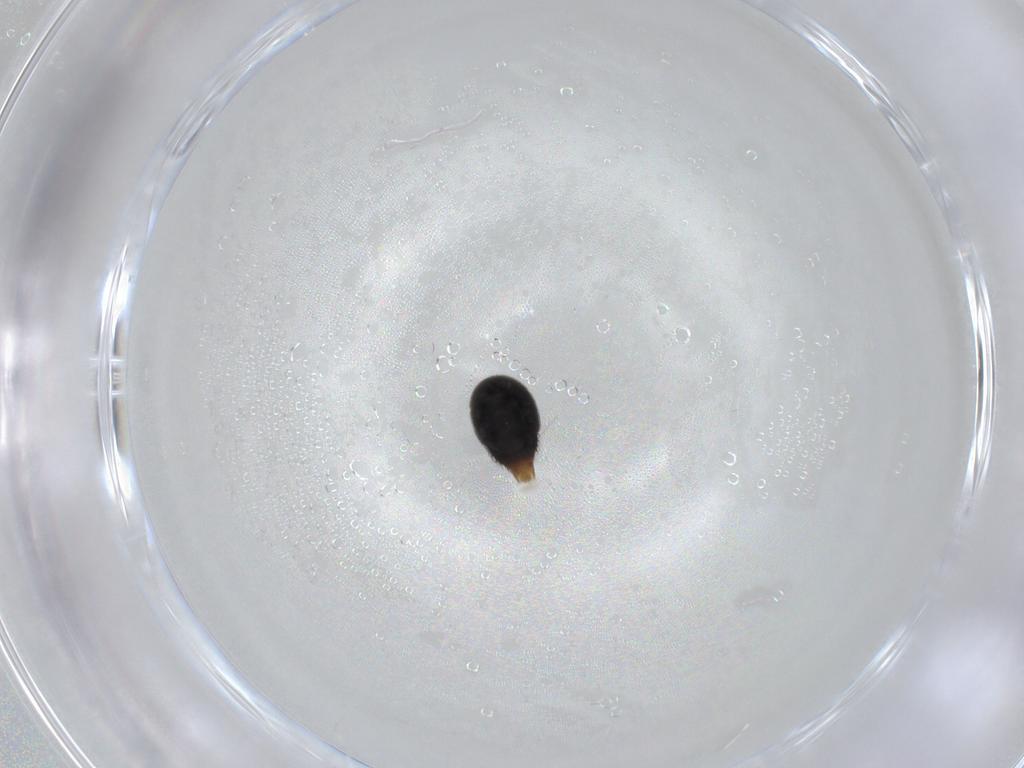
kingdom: Animalia
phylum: Arthropoda
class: Insecta
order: Coleoptera
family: Staphylinidae
